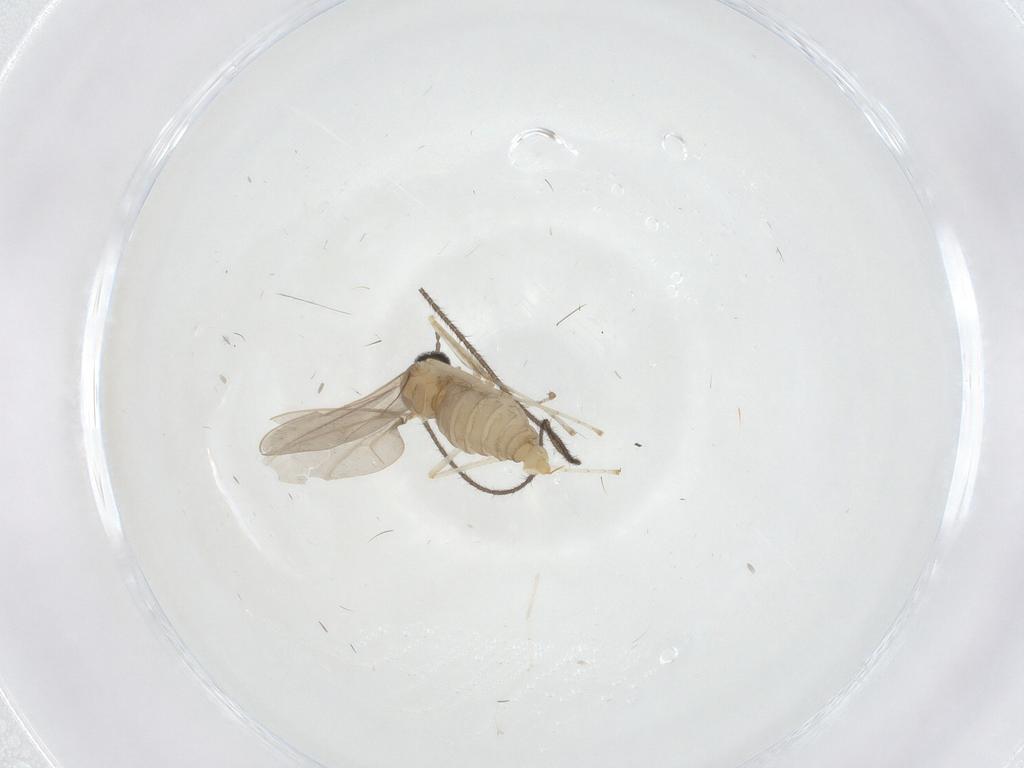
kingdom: Animalia
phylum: Arthropoda
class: Insecta
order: Diptera
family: Cecidomyiidae
